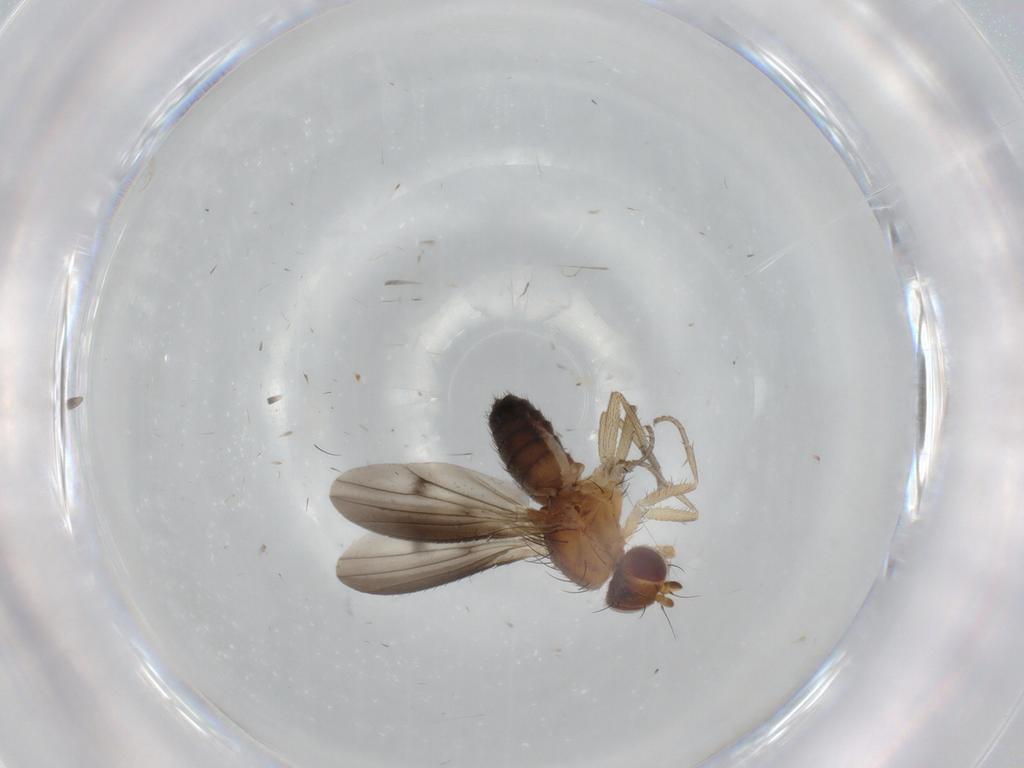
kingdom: Animalia
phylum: Arthropoda
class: Insecta
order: Diptera
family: Heleomyzidae
